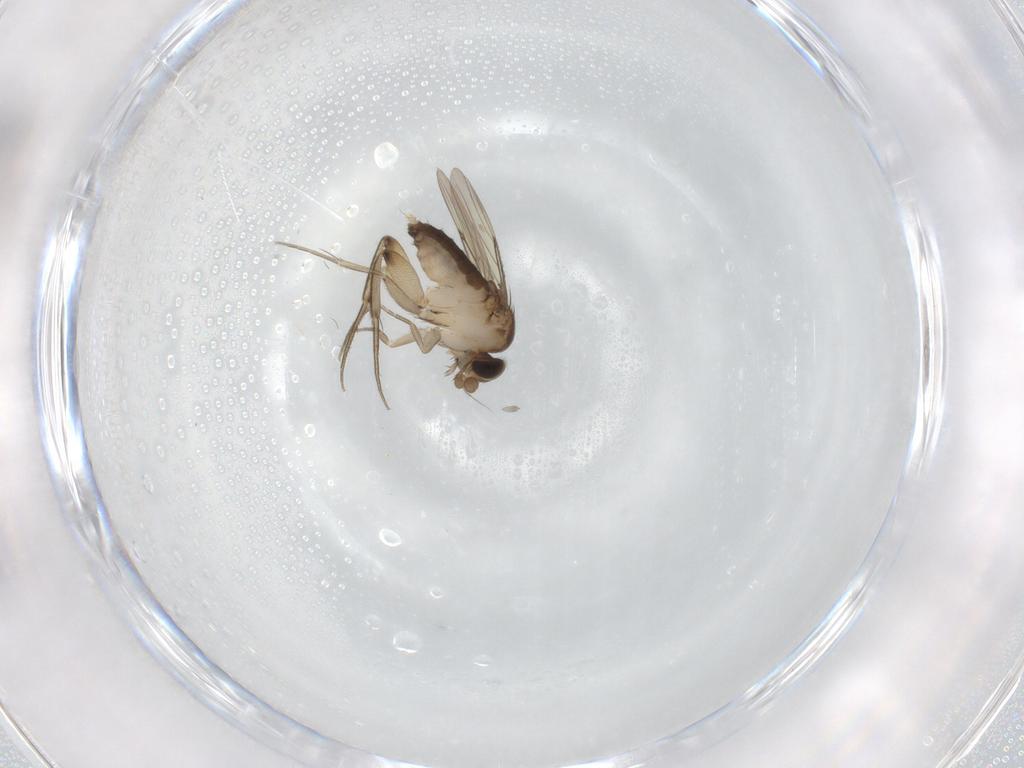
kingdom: Animalia
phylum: Arthropoda
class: Insecta
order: Diptera
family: Phoridae
